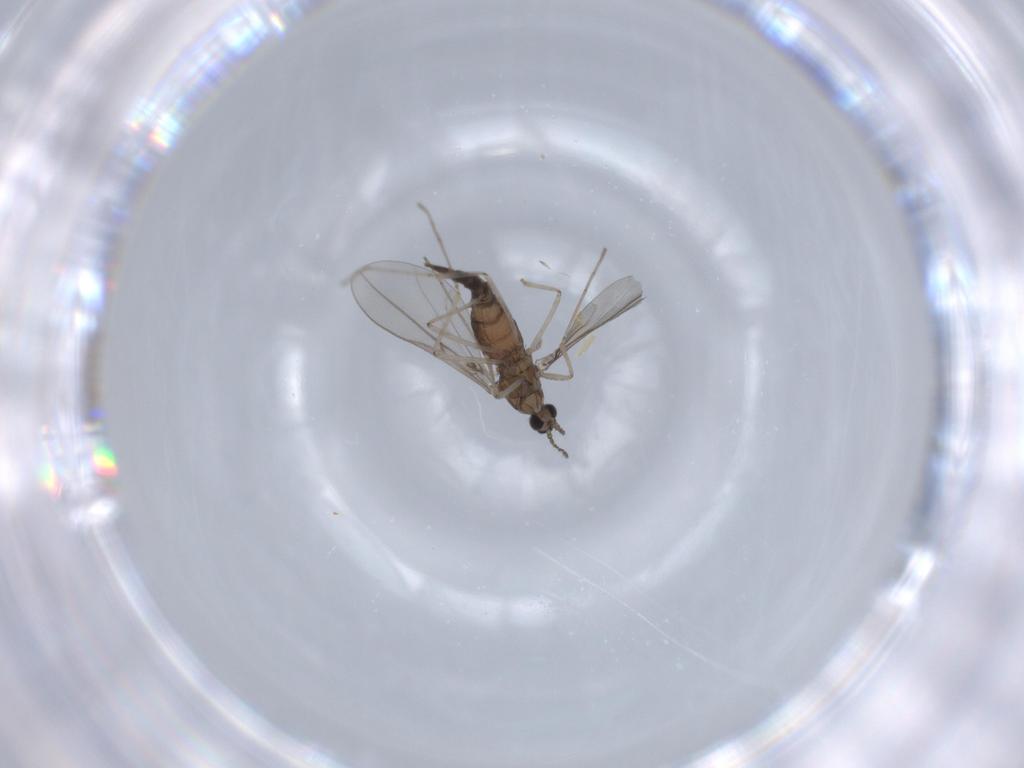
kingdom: Animalia
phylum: Arthropoda
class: Insecta
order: Diptera
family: Cecidomyiidae
